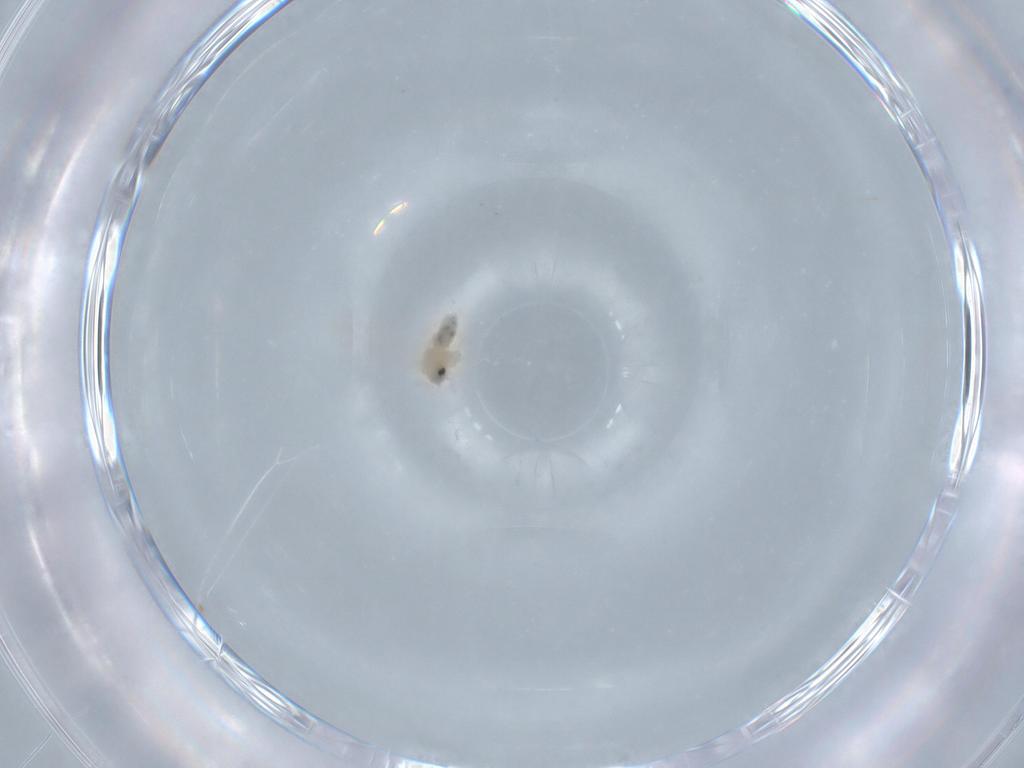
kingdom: Animalia
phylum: Arthropoda
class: Insecta
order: Hemiptera
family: Aleyrodidae
